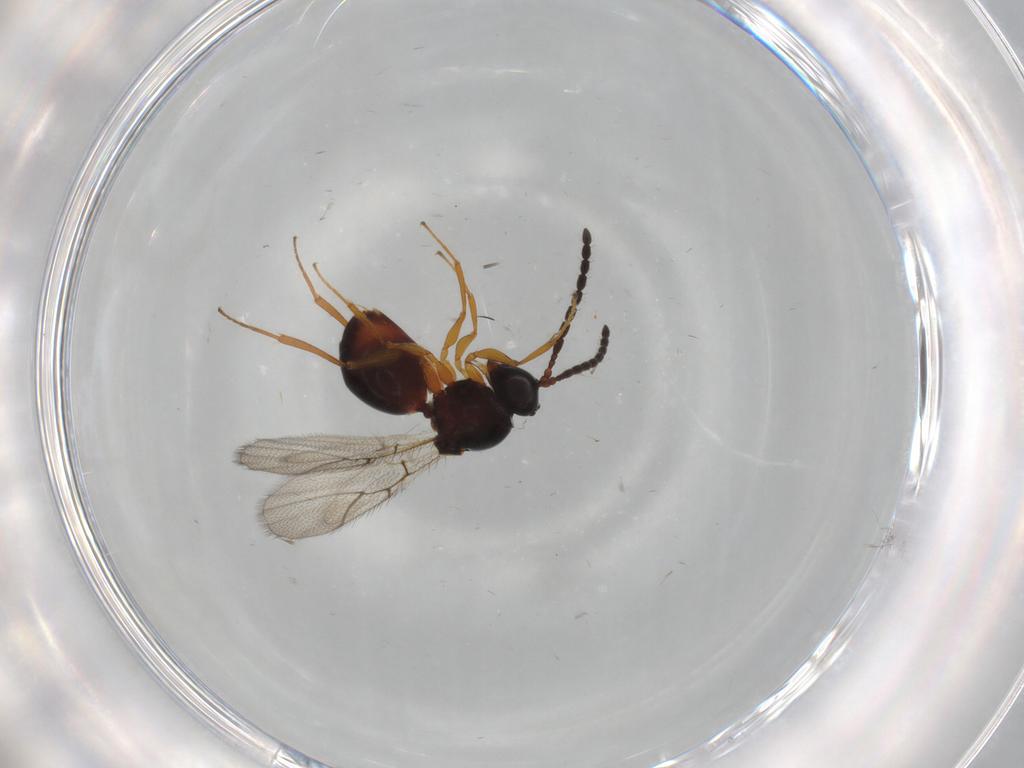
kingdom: Animalia
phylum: Arthropoda
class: Insecta
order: Hymenoptera
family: Figitidae
